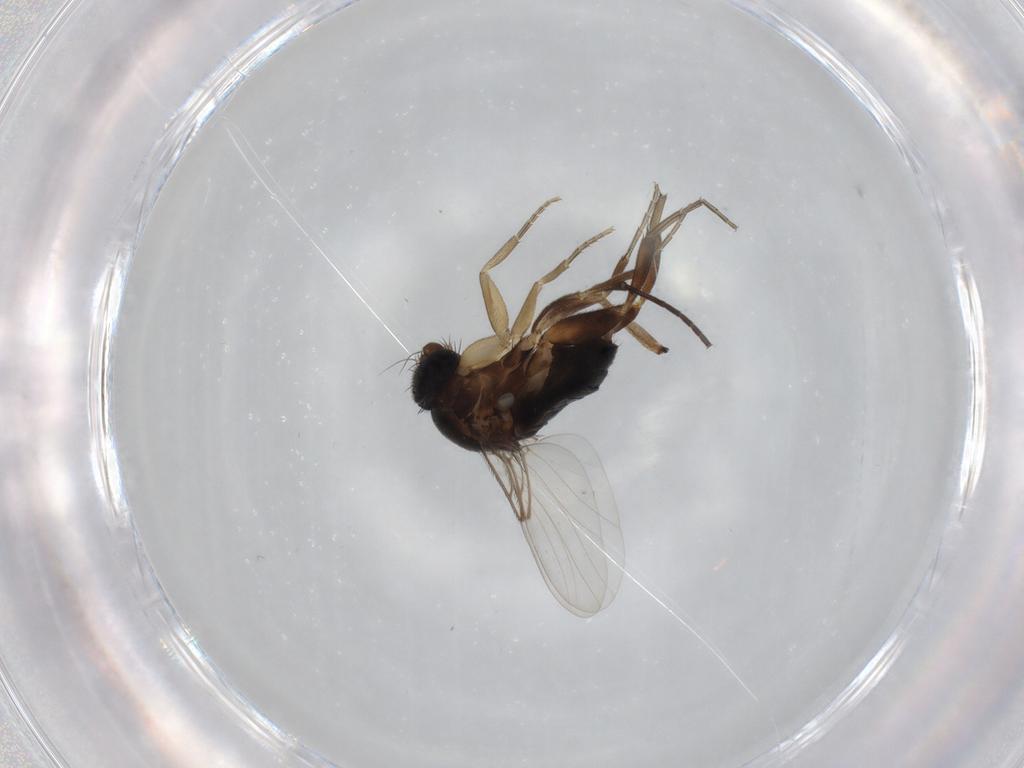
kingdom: Animalia
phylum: Arthropoda
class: Insecta
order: Diptera
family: Phoridae
